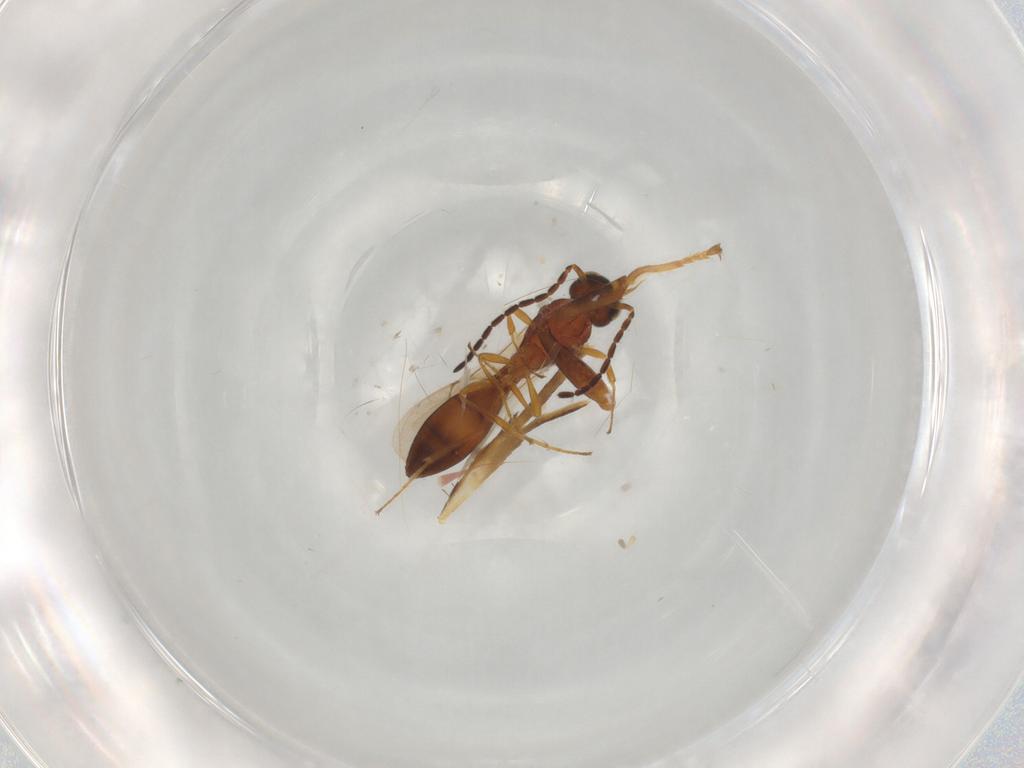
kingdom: Animalia
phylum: Arthropoda
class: Insecta
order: Hymenoptera
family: Formicidae
